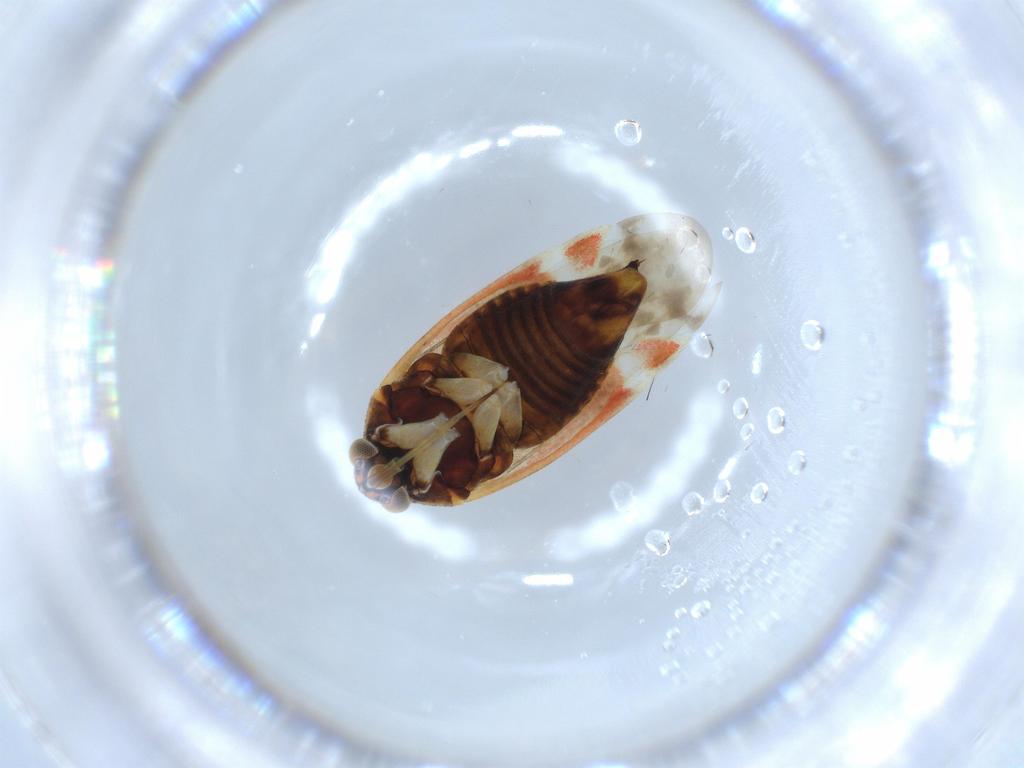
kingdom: Animalia
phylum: Arthropoda
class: Insecta
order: Hemiptera
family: Aphididae
